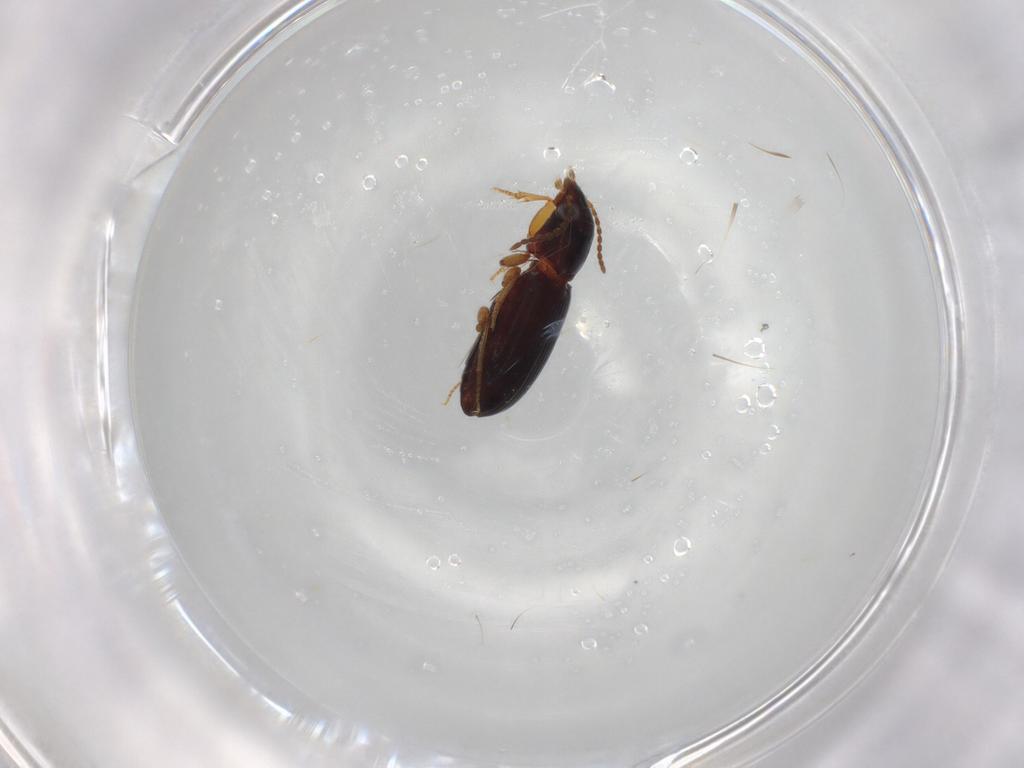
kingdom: Animalia
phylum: Arthropoda
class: Insecta
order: Coleoptera
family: Carabidae
